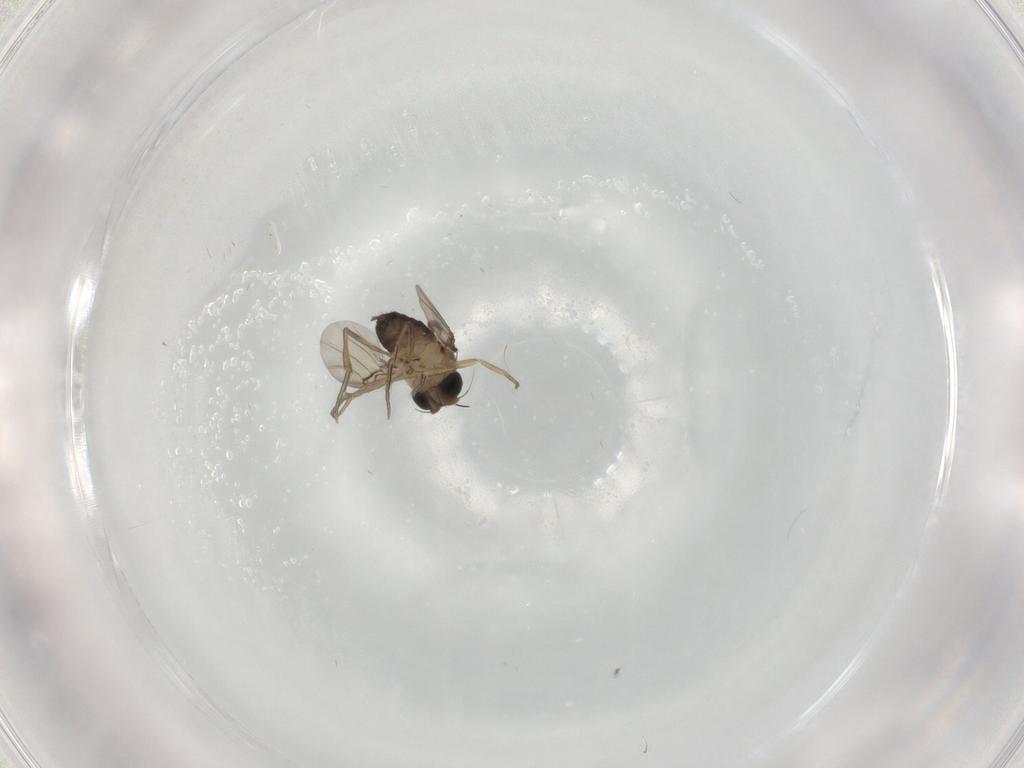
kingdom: Animalia
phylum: Arthropoda
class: Insecta
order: Diptera
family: Phoridae
